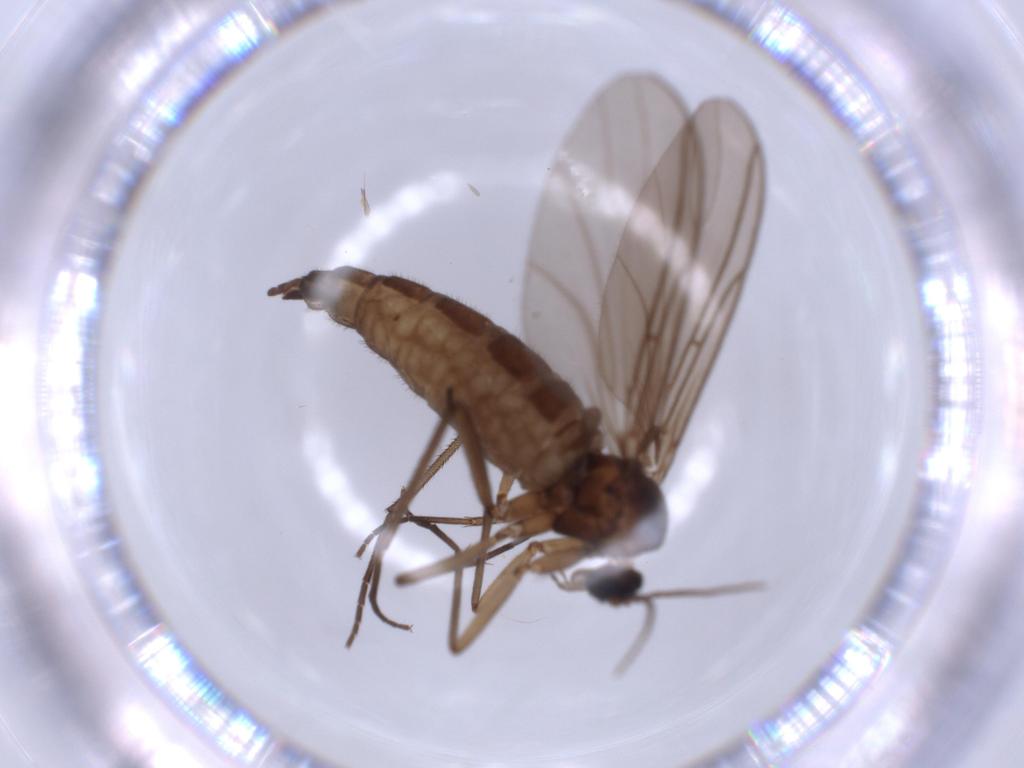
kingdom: Animalia
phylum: Arthropoda
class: Insecta
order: Diptera
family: Sciaridae
